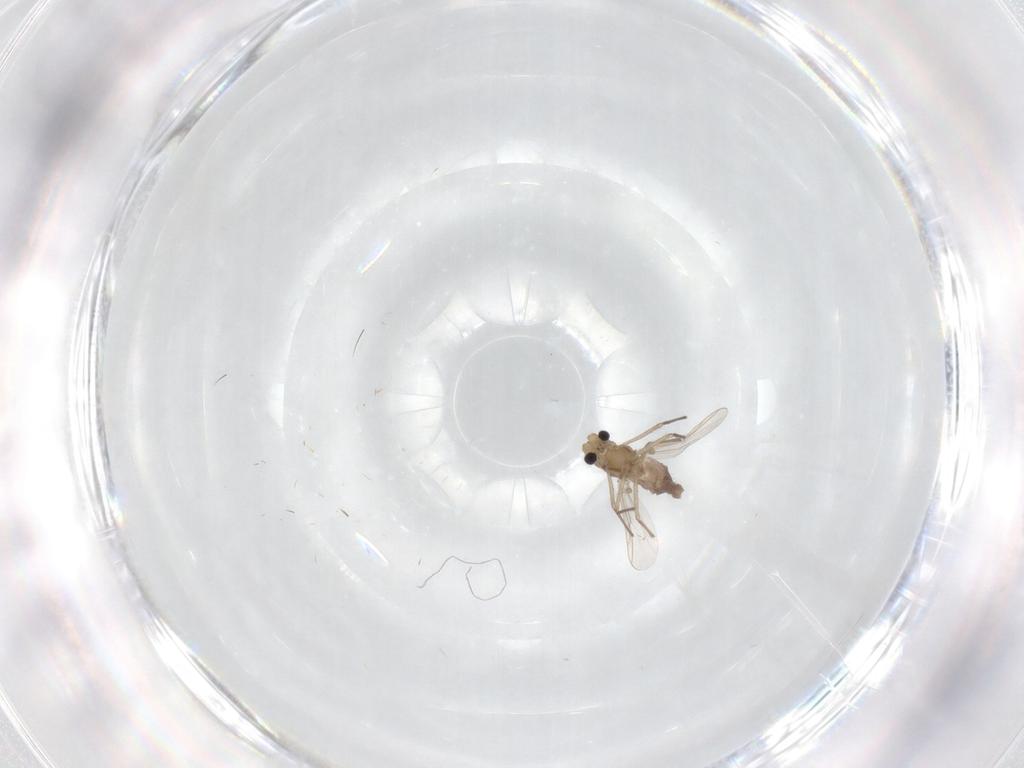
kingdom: Animalia
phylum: Arthropoda
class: Insecta
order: Diptera
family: Chironomidae
